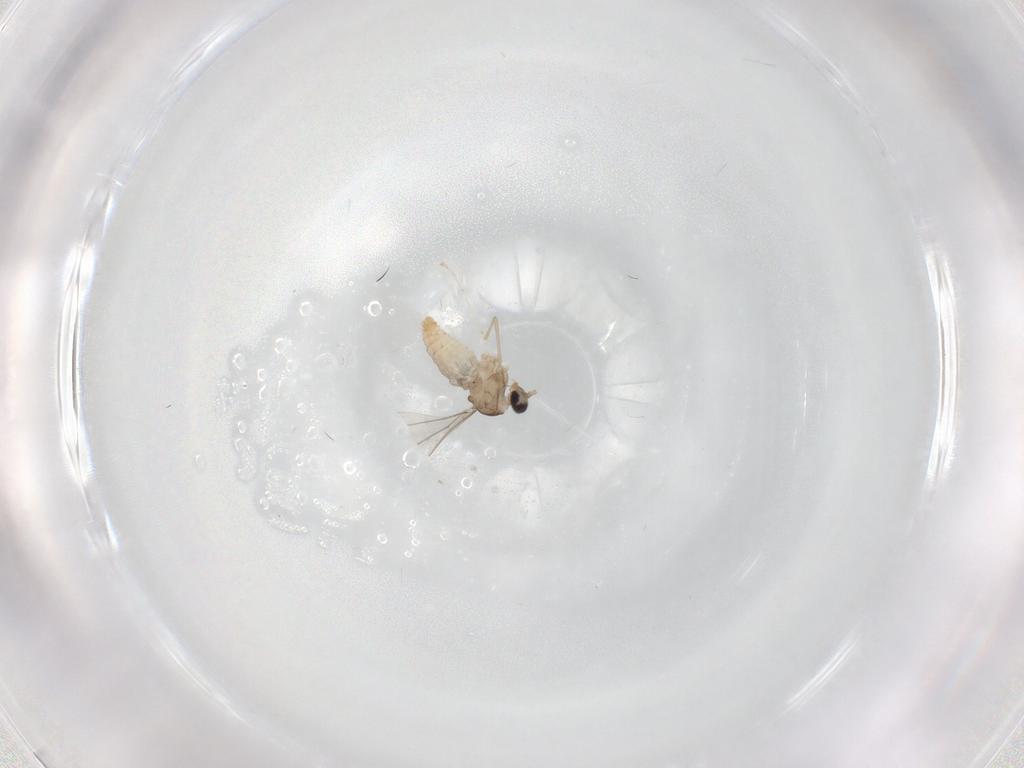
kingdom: Animalia
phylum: Arthropoda
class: Insecta
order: Diptera
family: Cecidomyiidae
